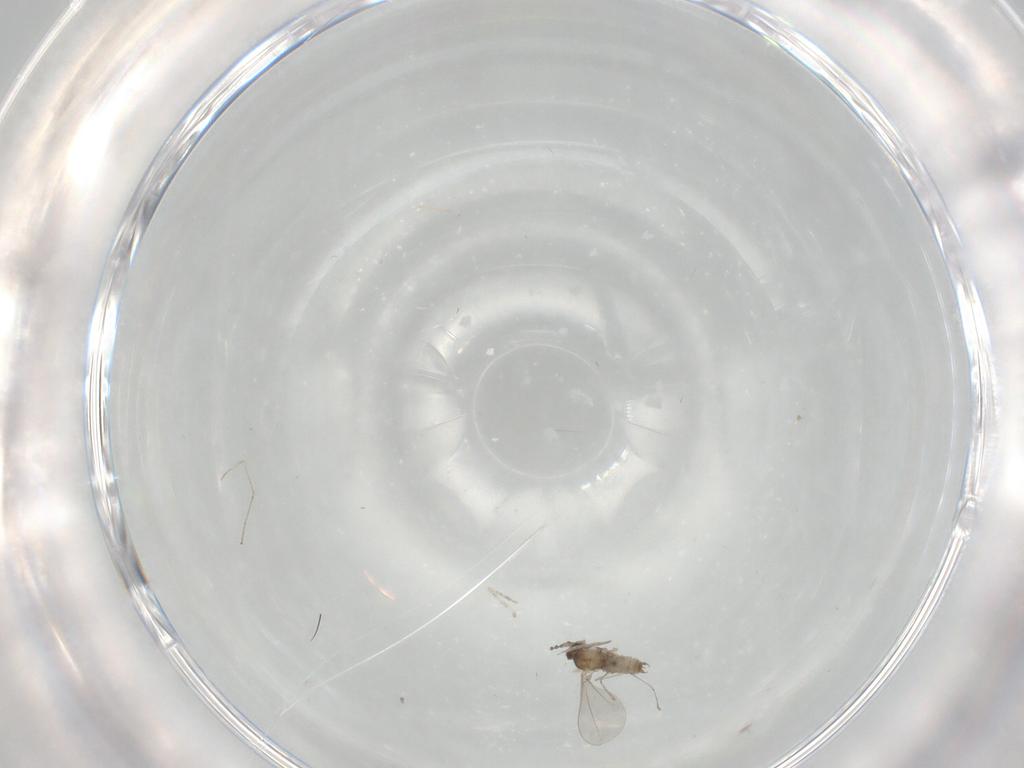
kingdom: Animalia
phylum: Arthropoda
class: Insecta
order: Diptera
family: Cecidomyiidae
